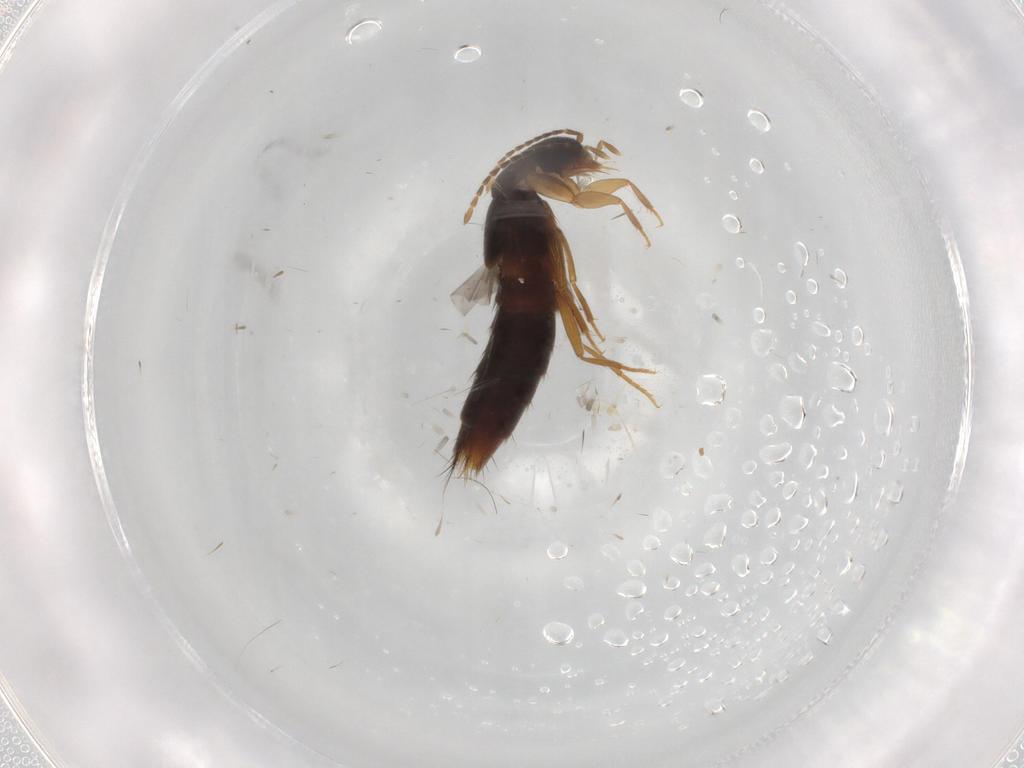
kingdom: Animalia
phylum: Arthropoda
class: Insecta
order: Coleoptera
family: Staphylinidae
